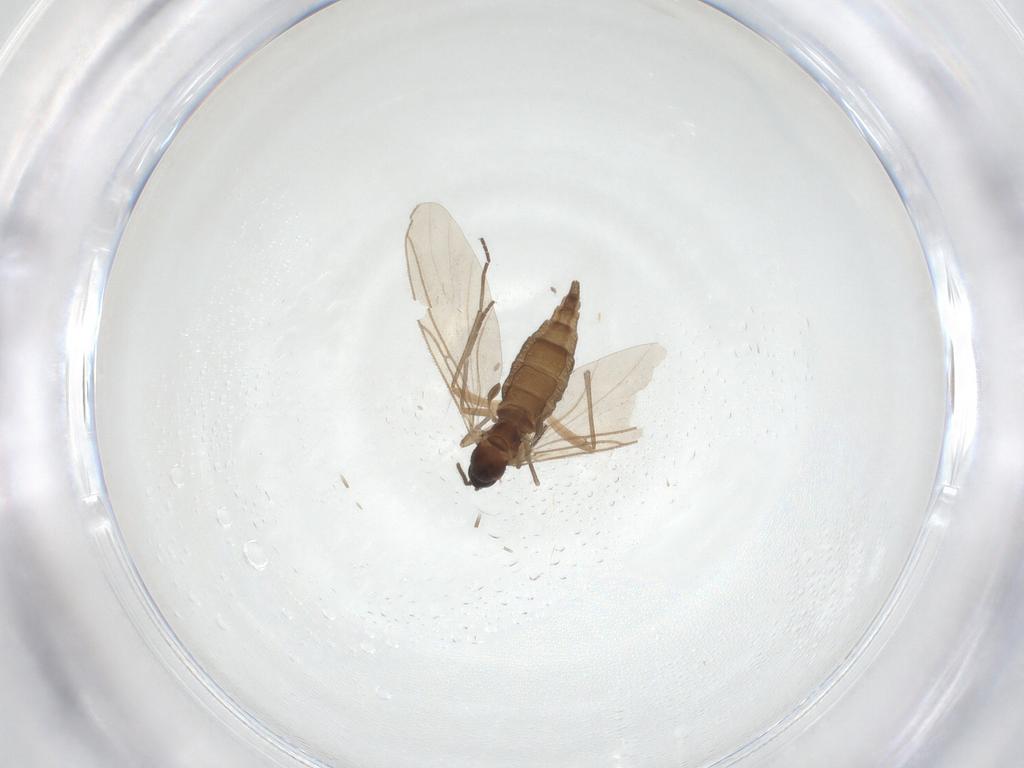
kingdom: Animalia
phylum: Arthropoda
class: Insecta
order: Diptera
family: Sciaridae
